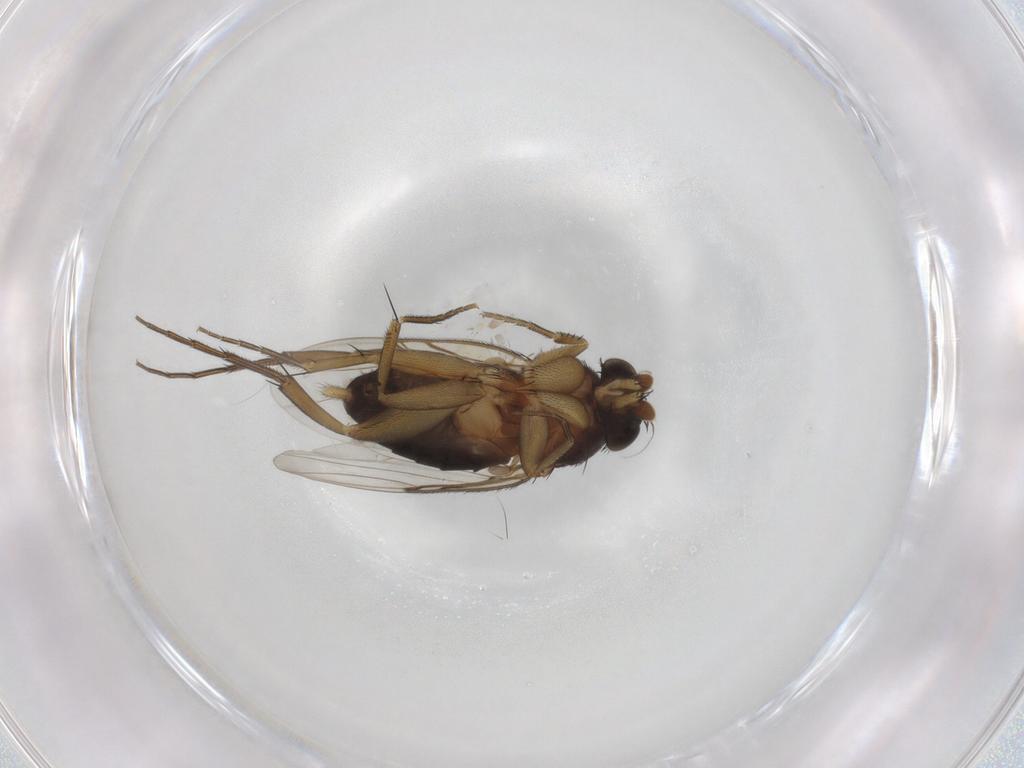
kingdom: Animalia
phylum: Arthropoda
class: Insecta
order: Diptera
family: Phoridae
